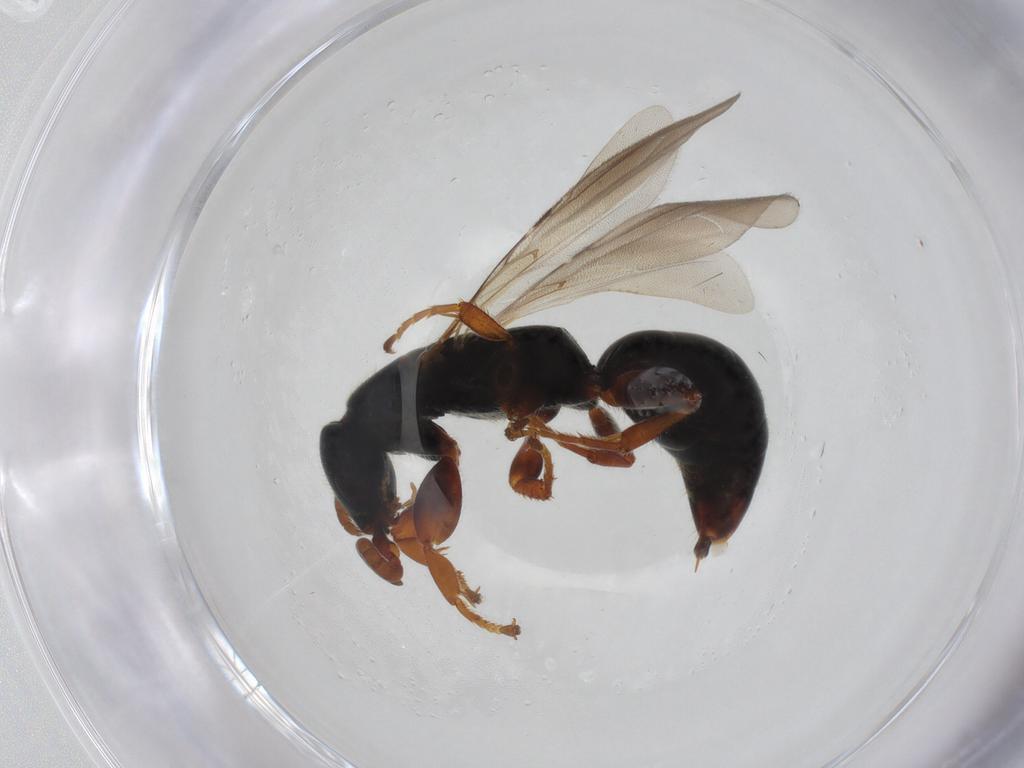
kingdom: Animalia
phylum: Arthropoda
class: Insecta
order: Hymenoptera
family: Bethylidae
